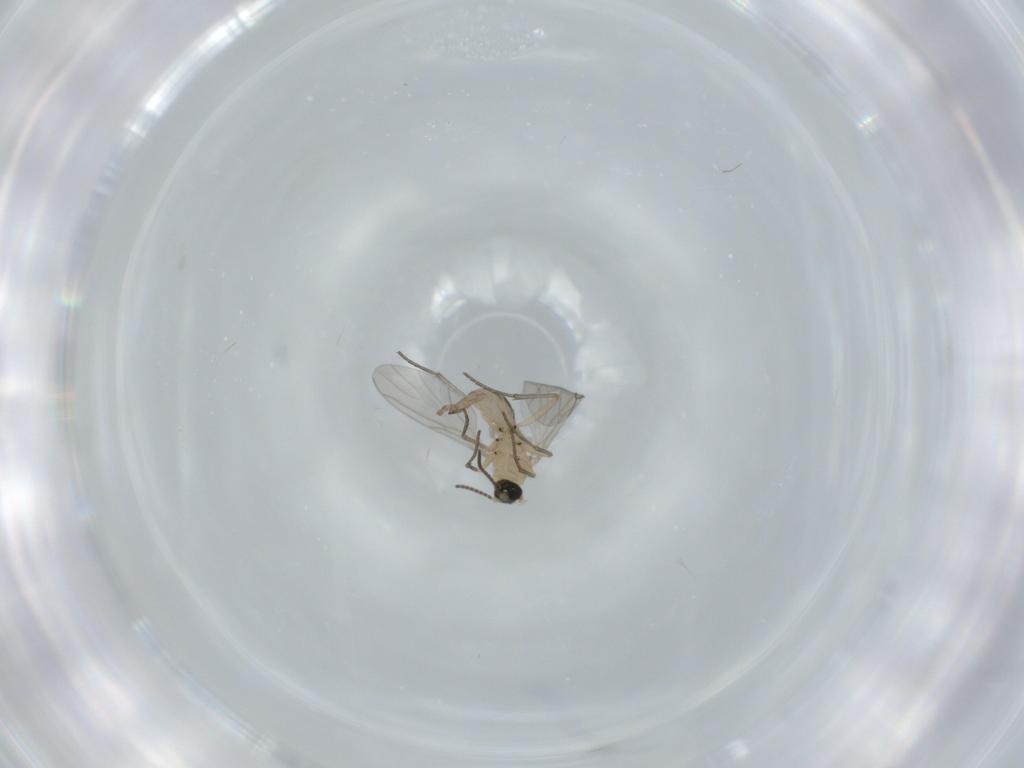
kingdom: Animalia
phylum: Arthropoda
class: Insecta
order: Diptera
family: Sciaridae
